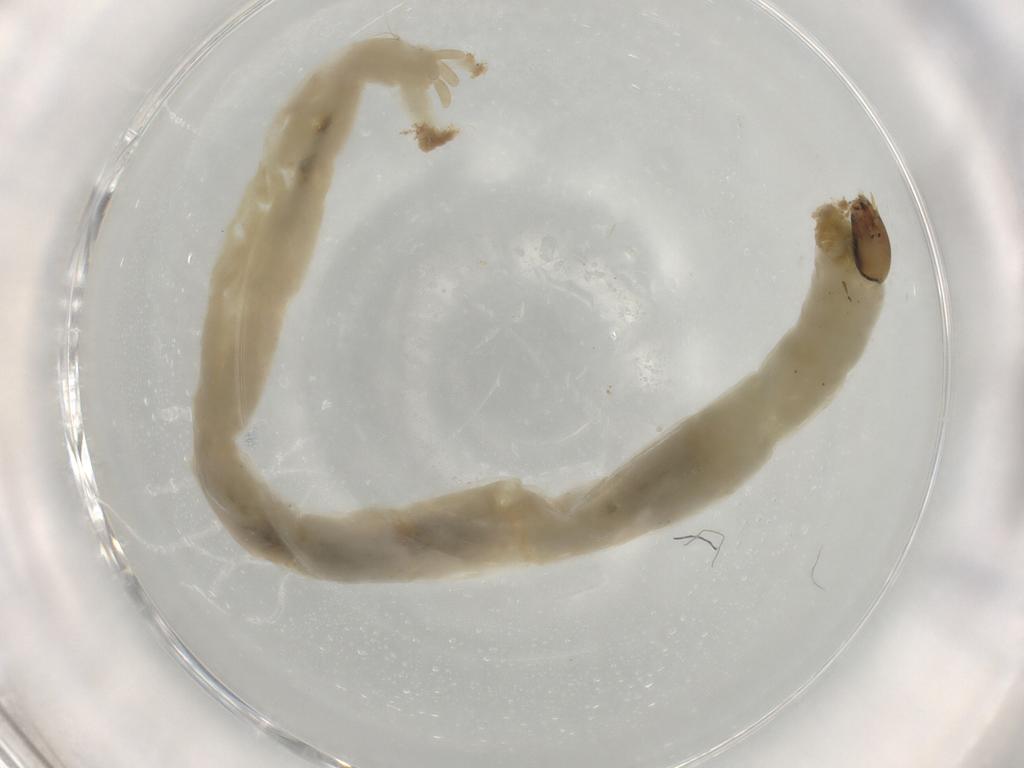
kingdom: Animalia
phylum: Arthropoda
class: Insecta
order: Diptera
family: Chironomidae
